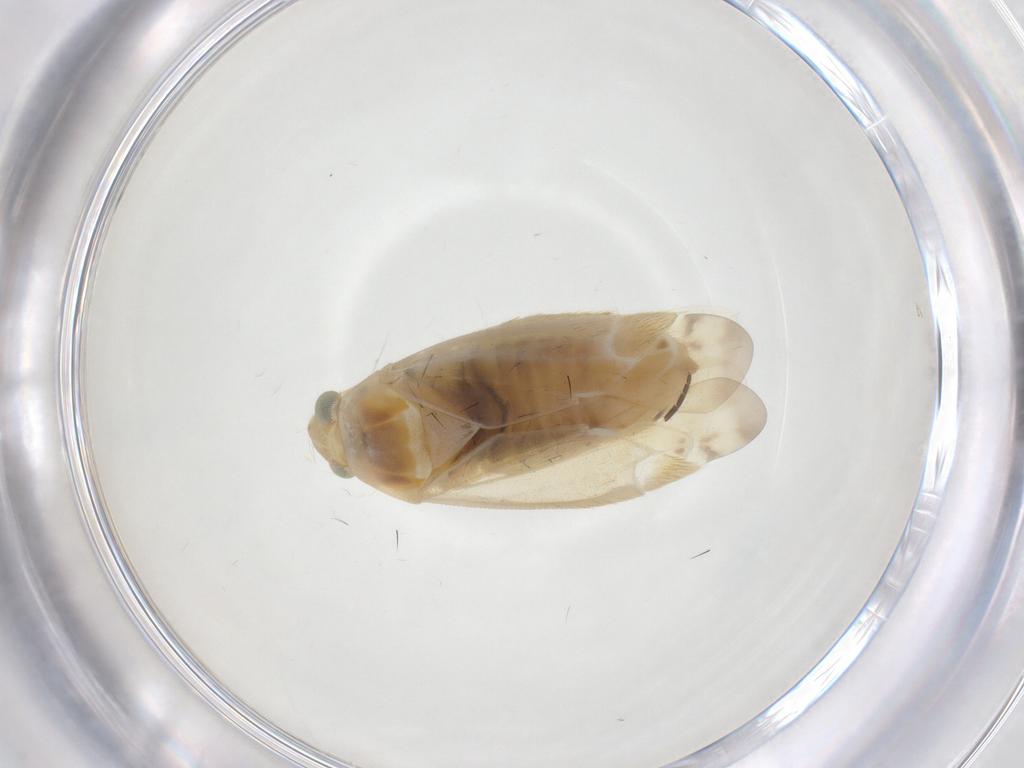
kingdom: Animalia
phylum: Arthropoda
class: Insecta
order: Hemiptera
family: Miridae
